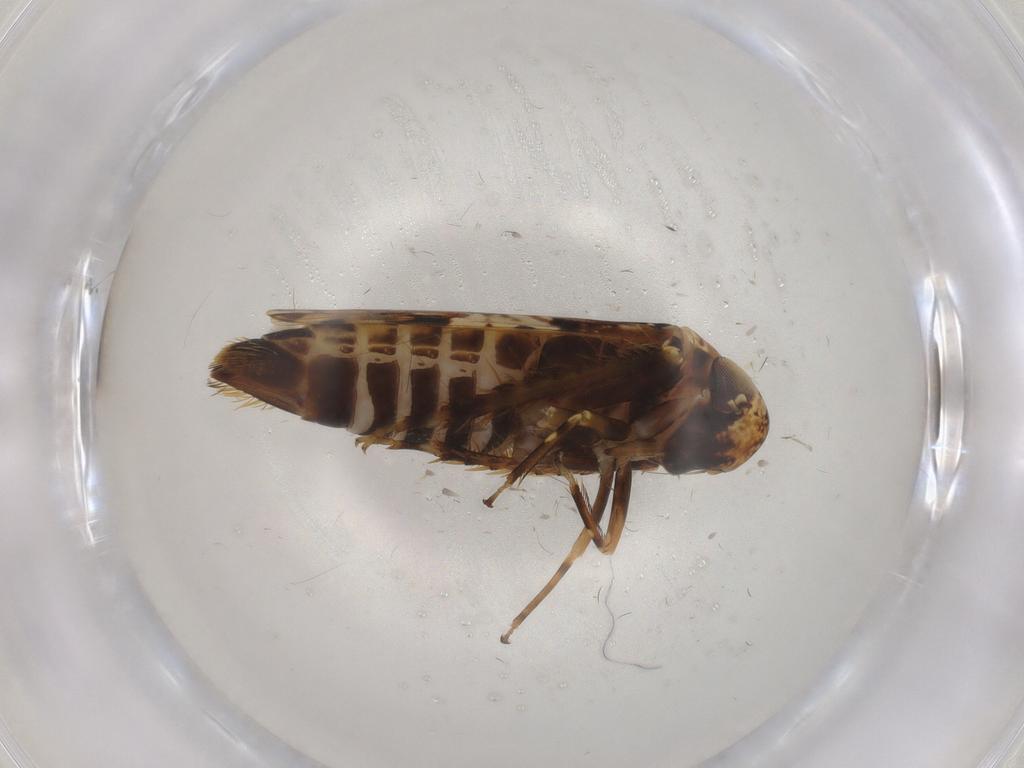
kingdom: Animalia
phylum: Arthropoda
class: Insecta
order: Hemiptera
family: Cicadellidae
